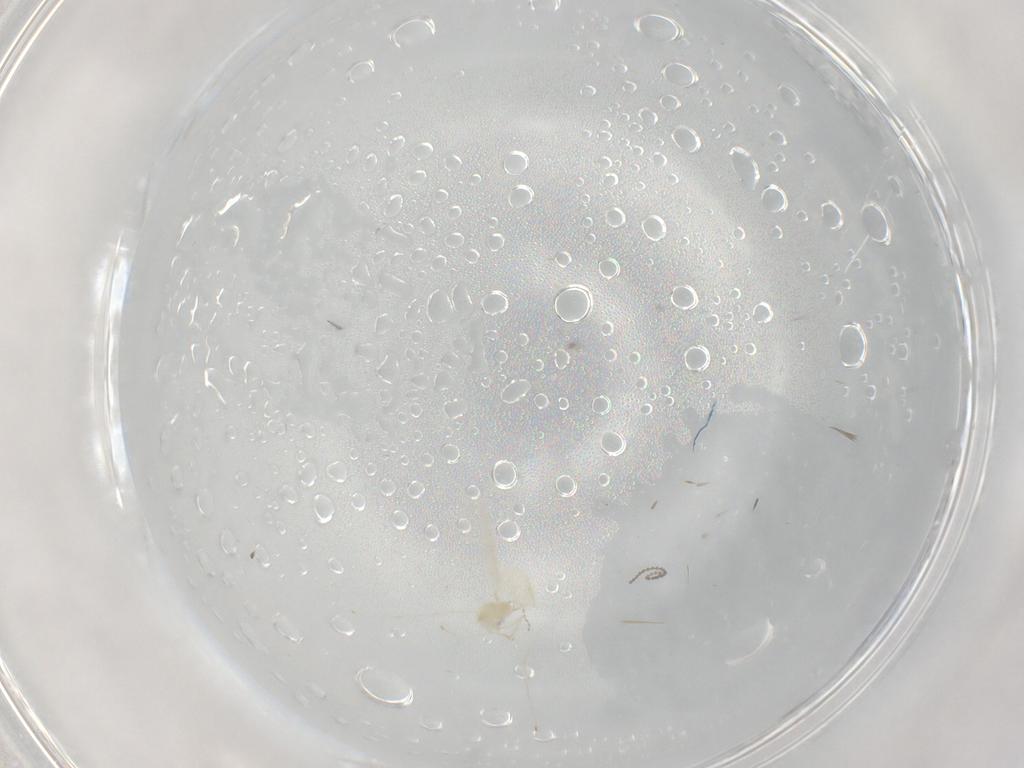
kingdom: Animalia
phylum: Arthropoda
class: Insecta
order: Diptera
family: Cecidomyiidae
